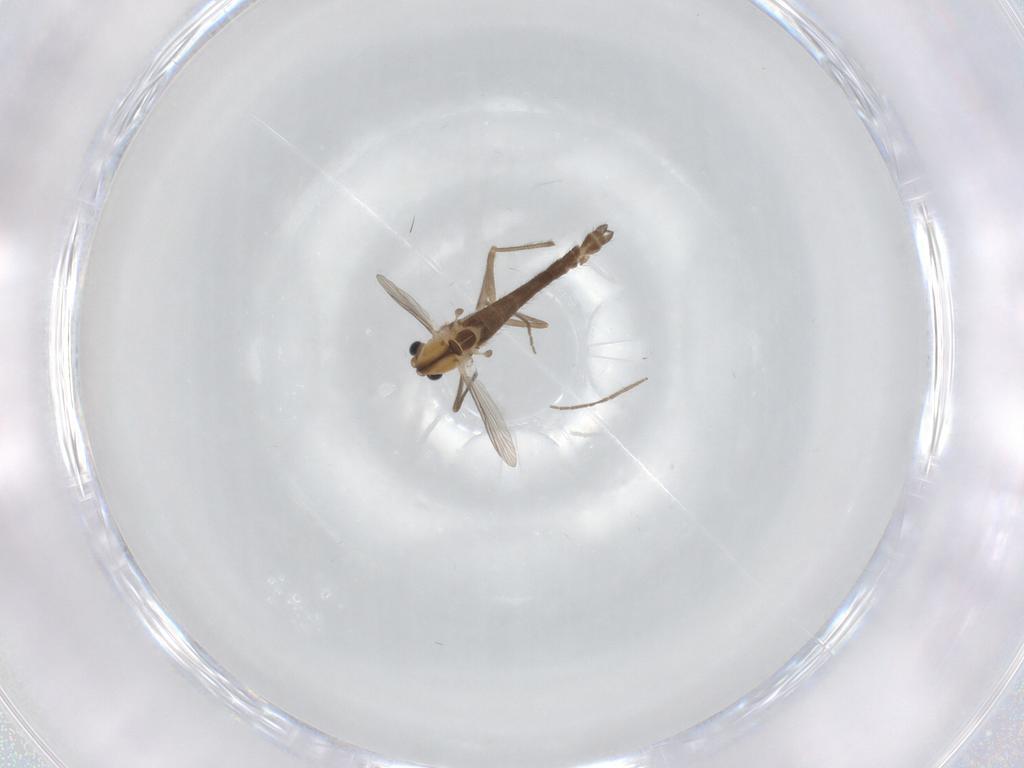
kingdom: Animalia
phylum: Arthropoda
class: Insecta
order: Diptera
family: Chironomidae
